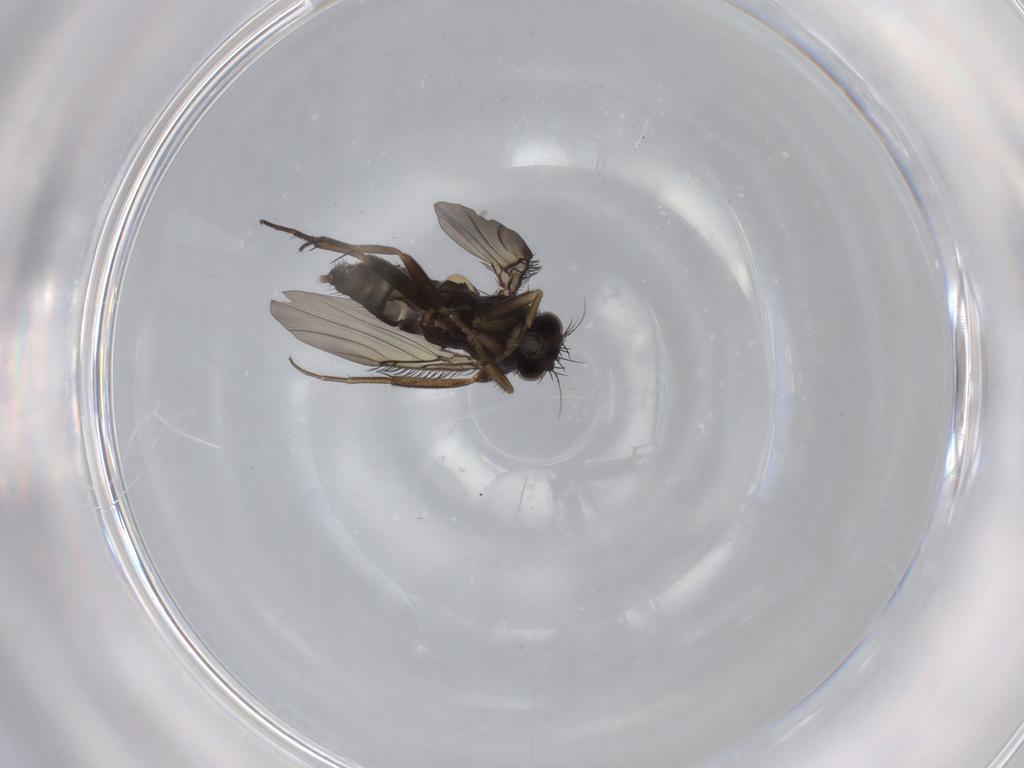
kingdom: Animalia
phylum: Arthropoda
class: Insecta
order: Diptera
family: Phoridae
